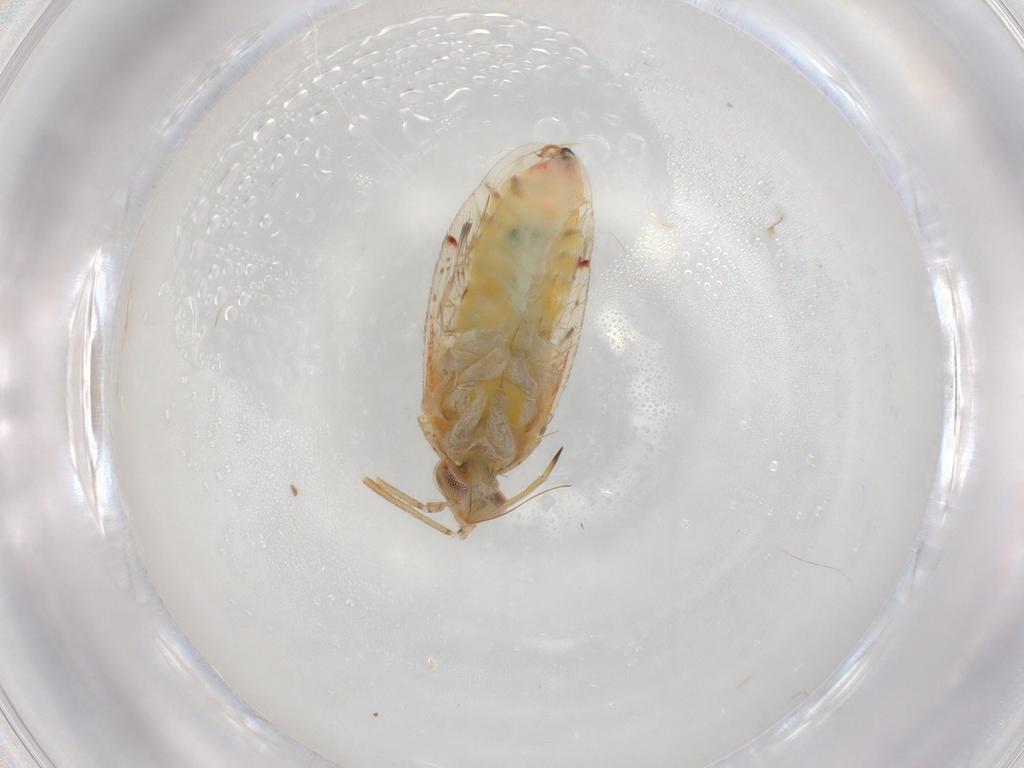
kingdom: Animalia
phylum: Arthropoda
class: Insecta
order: Hemiptera
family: Miridae
